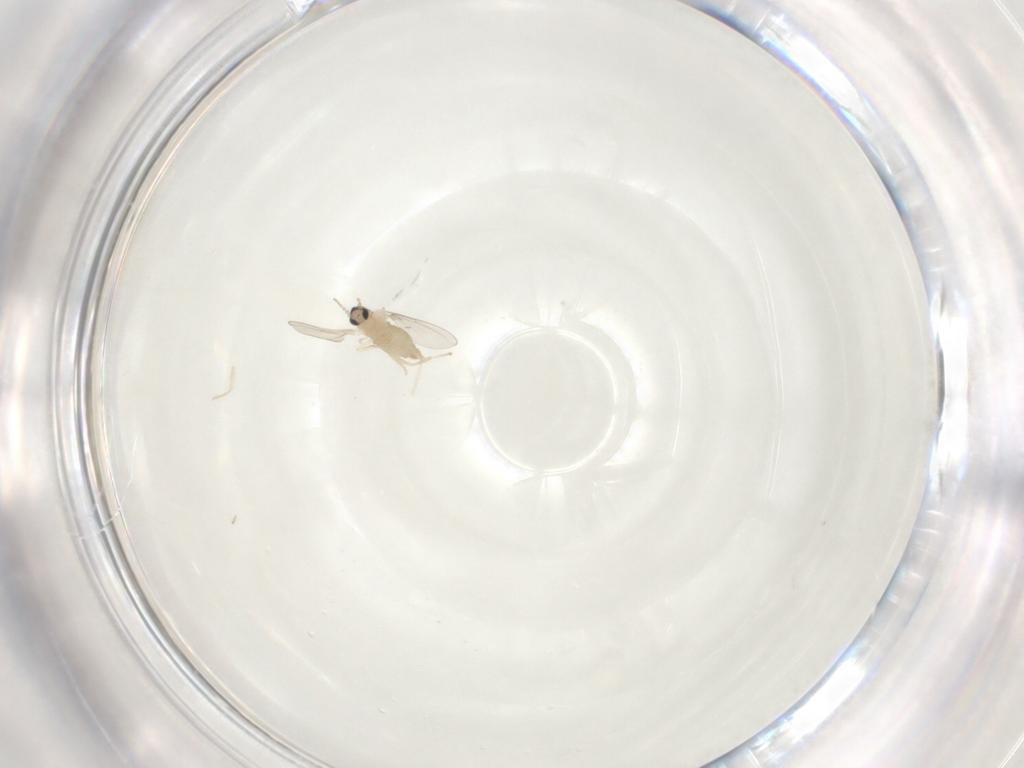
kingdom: Animalia
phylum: Arthropoda
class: Insecta
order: Diptera
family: Cecidomyiidae
